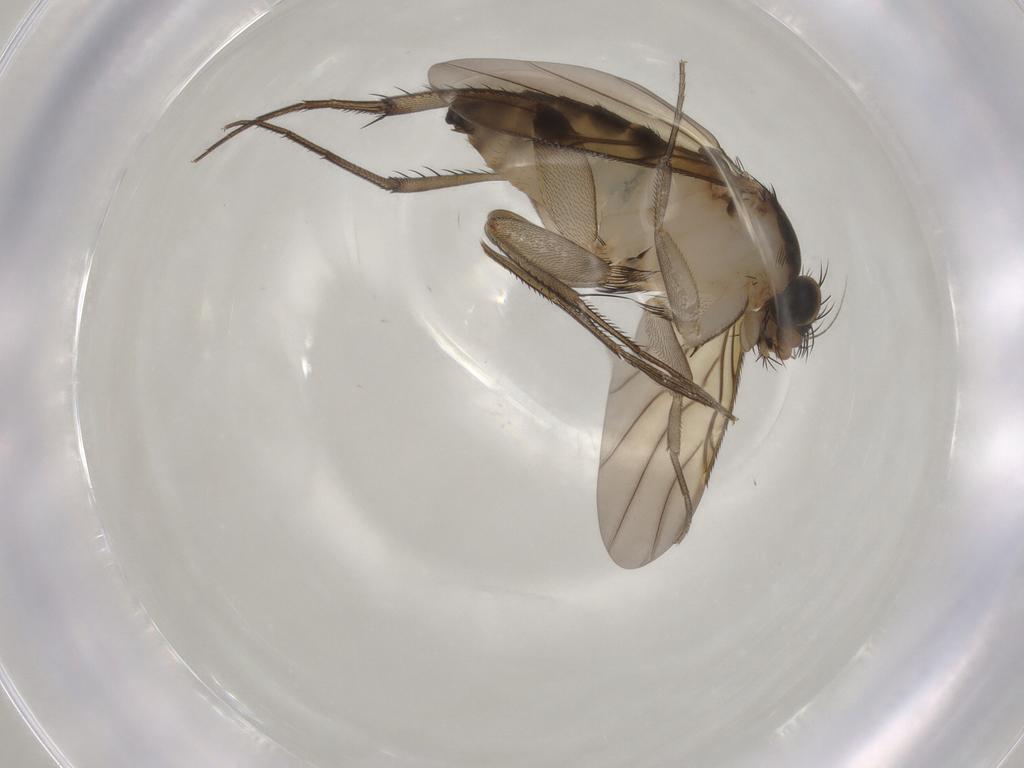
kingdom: Animalia
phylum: Arthropoda
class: Insecta
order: Diptera
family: Phoridae
